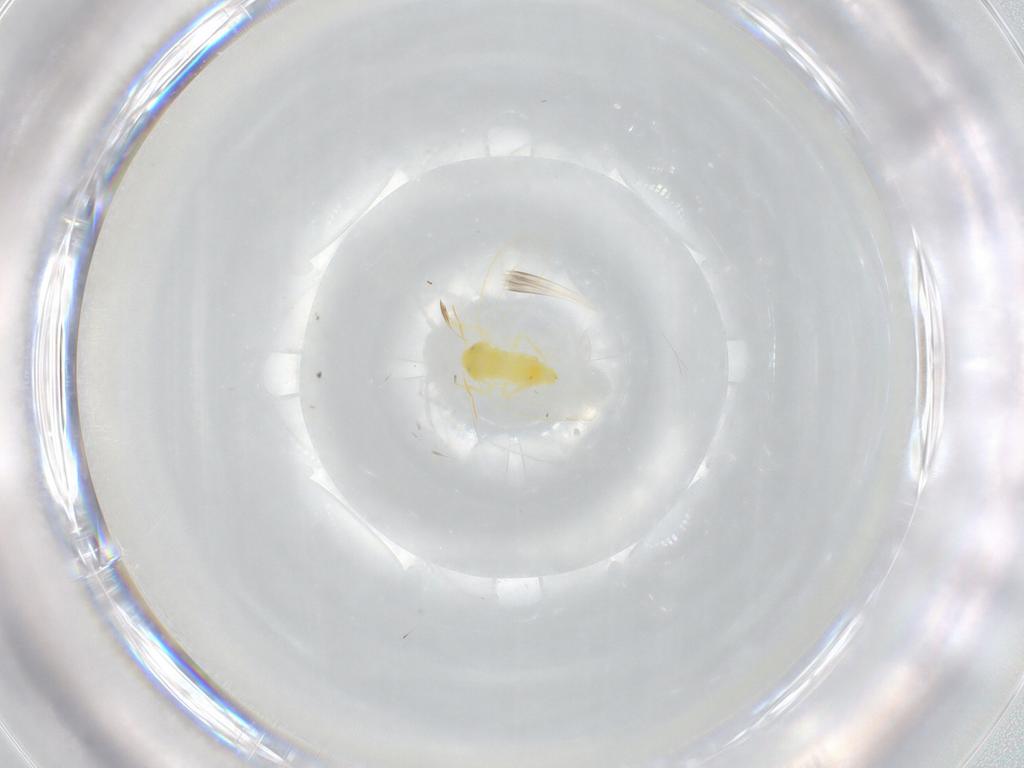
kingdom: Animalia
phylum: Arthropoda
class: Insecta
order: Hemiptera
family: Aleyrodidae
